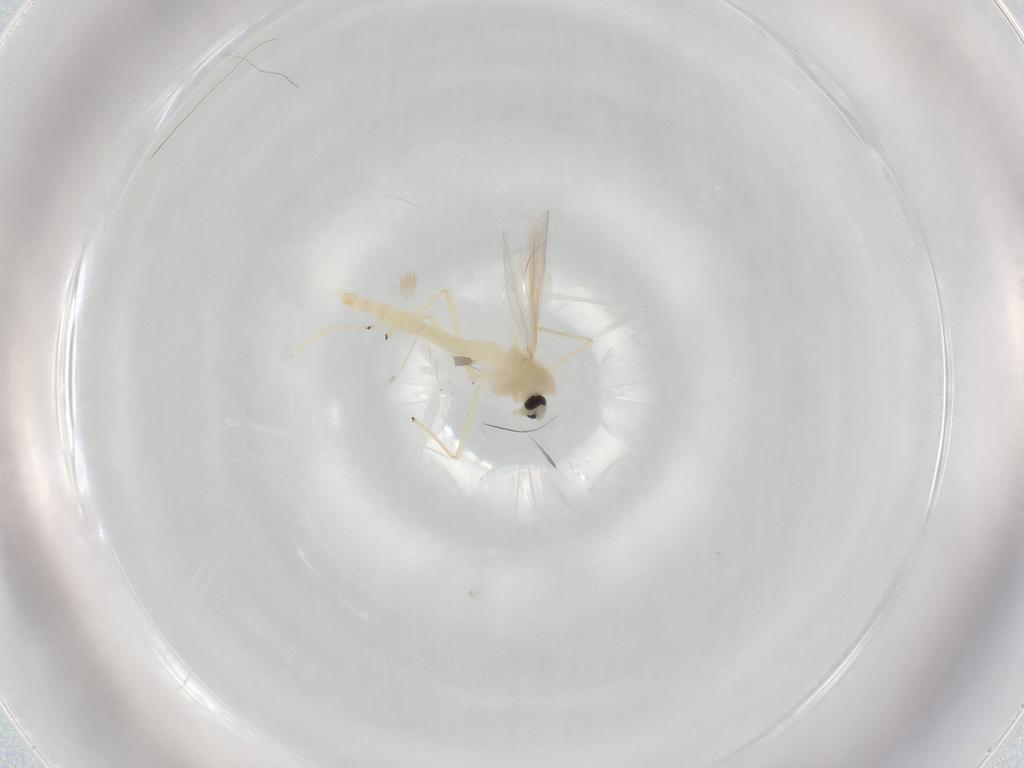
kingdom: Animalia
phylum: Arthropoda
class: Insecta
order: Diptera
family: Chironomidae
